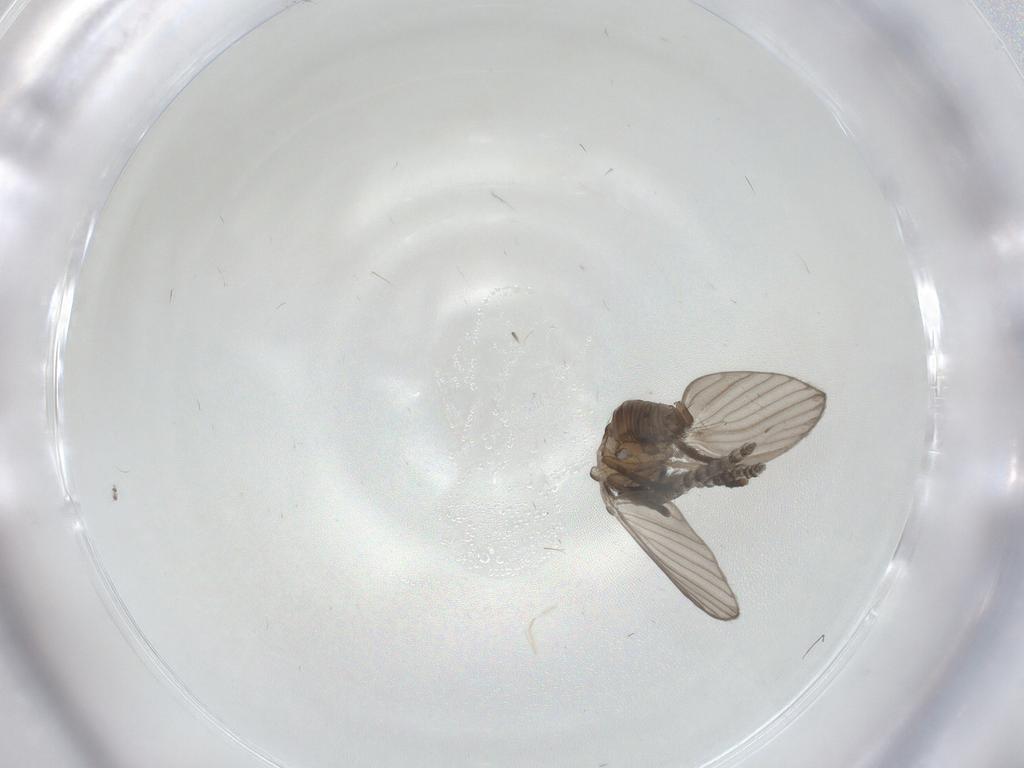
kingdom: Animalia
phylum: Arthropoda
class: Insecta
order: Diptera
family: Psychodidae
